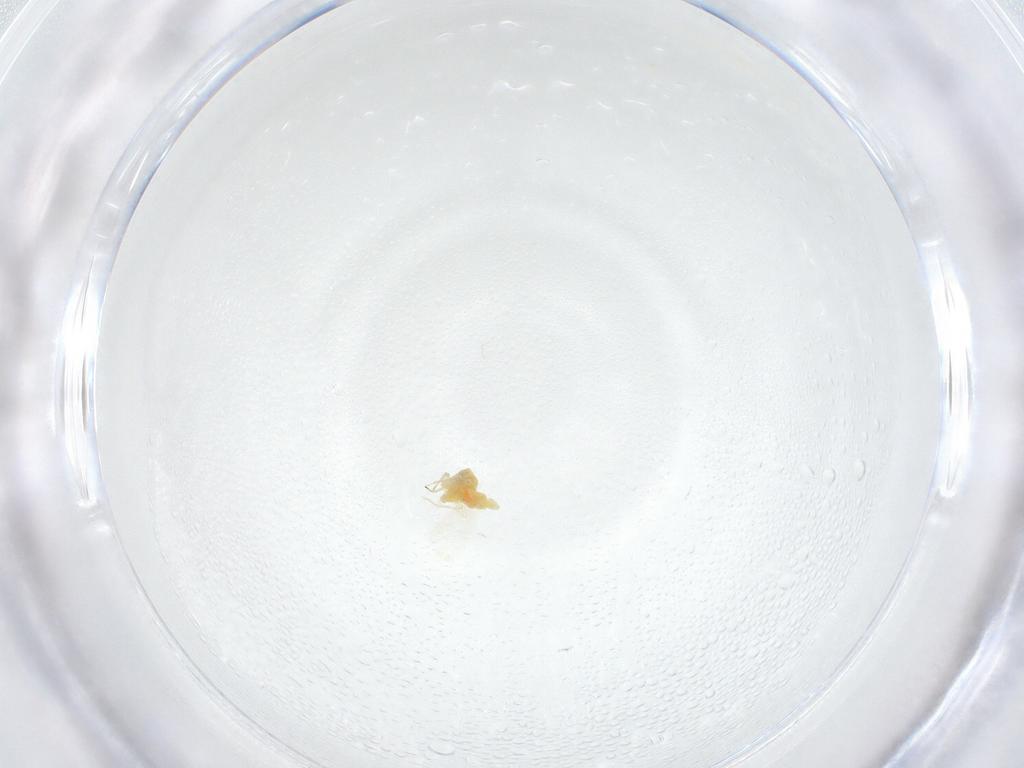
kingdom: Animalia
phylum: Arthropoda
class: Insecta
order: Hemiptera
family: Aleyrodidae
